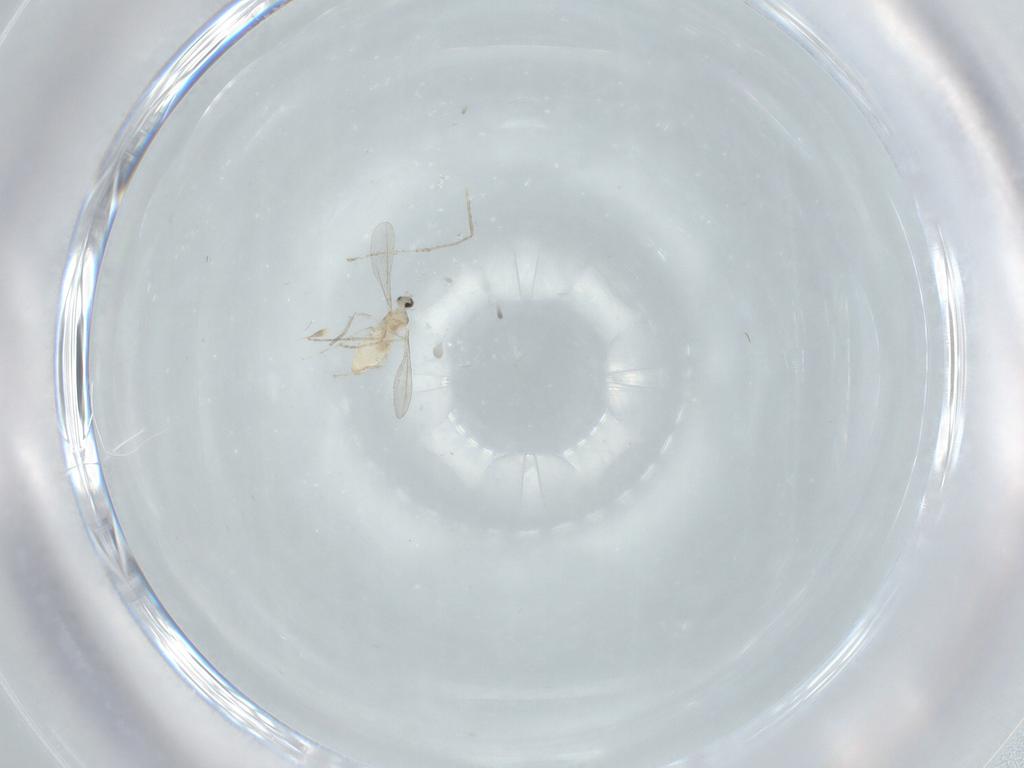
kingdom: Animalia
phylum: Arthropoda
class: Insecta
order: Diptera
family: Cecidomyiidae
